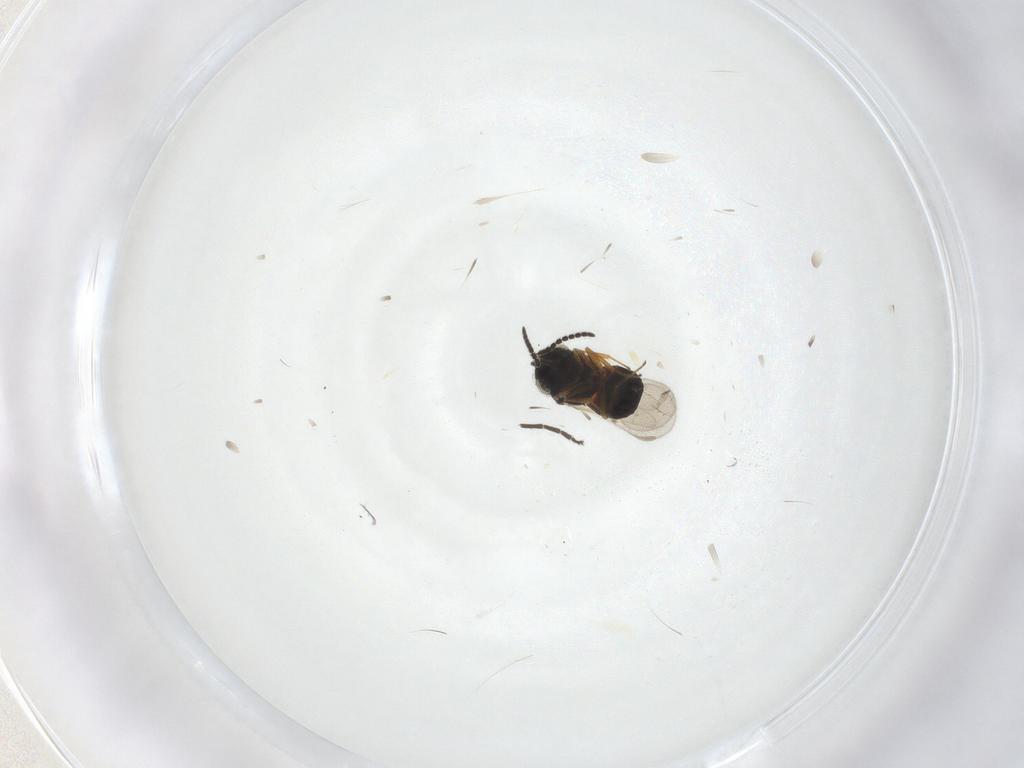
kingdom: Animalia
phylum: Arthropoda
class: Insecta
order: Hymenoptera
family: Scelionidae
